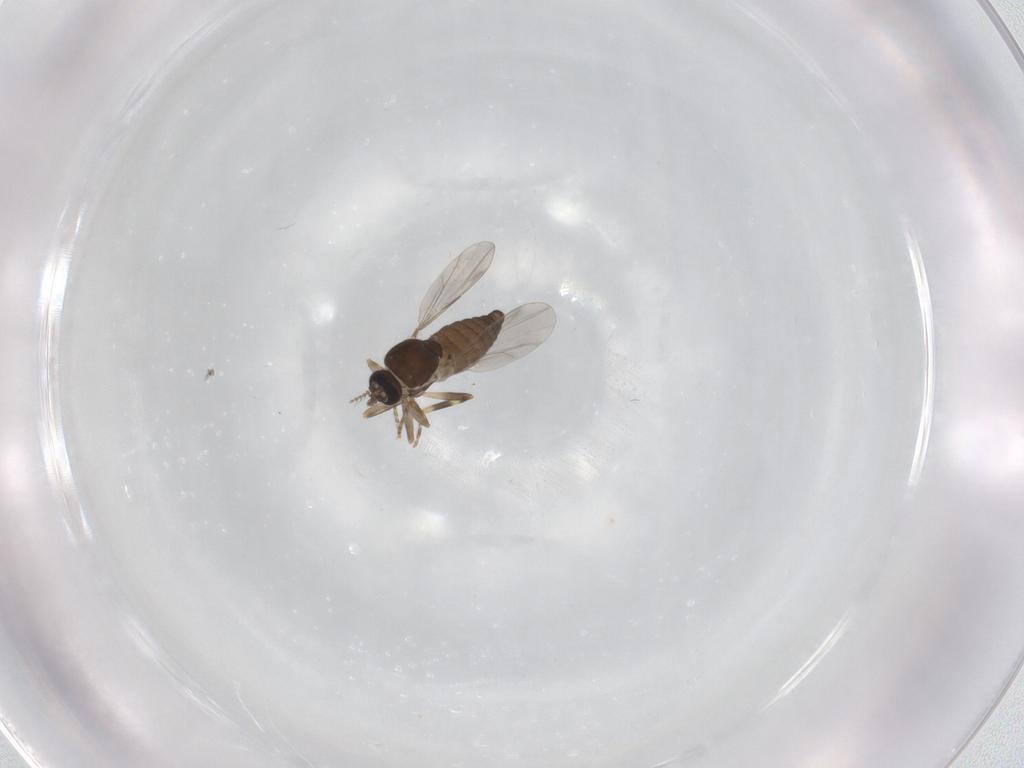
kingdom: Animalia
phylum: Arthropoda
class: Insecta
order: Diptera
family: Ceratopogonidae
